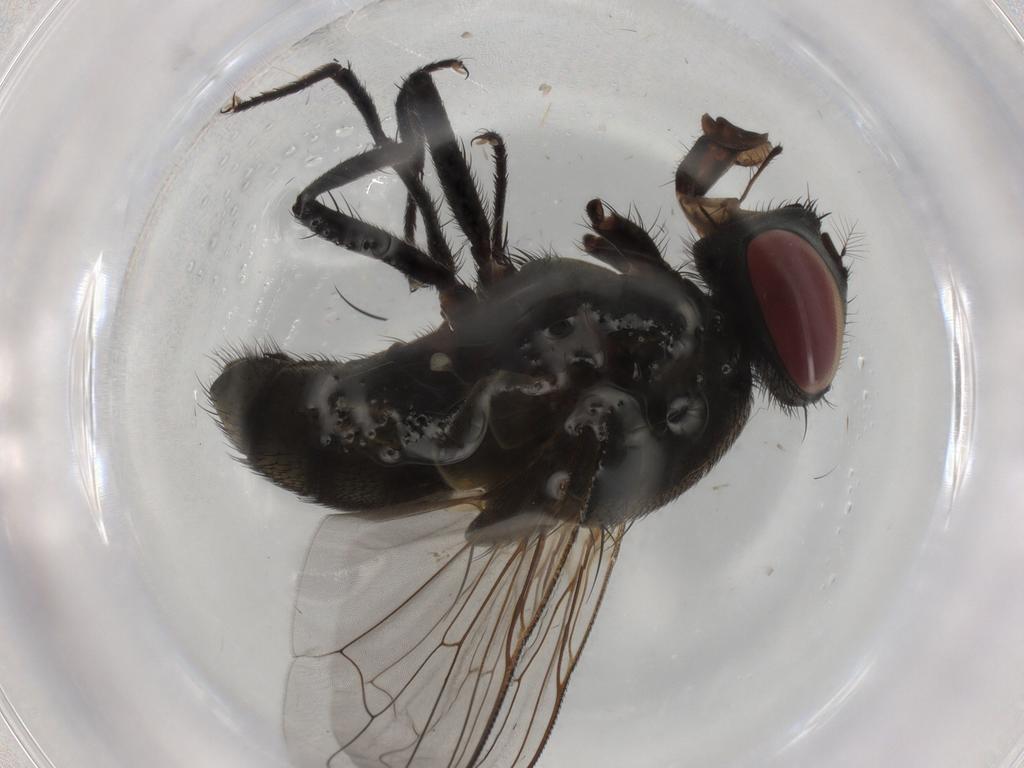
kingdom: Animalia
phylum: Arthropoda
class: Insecta
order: Diptera
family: Muscidae
